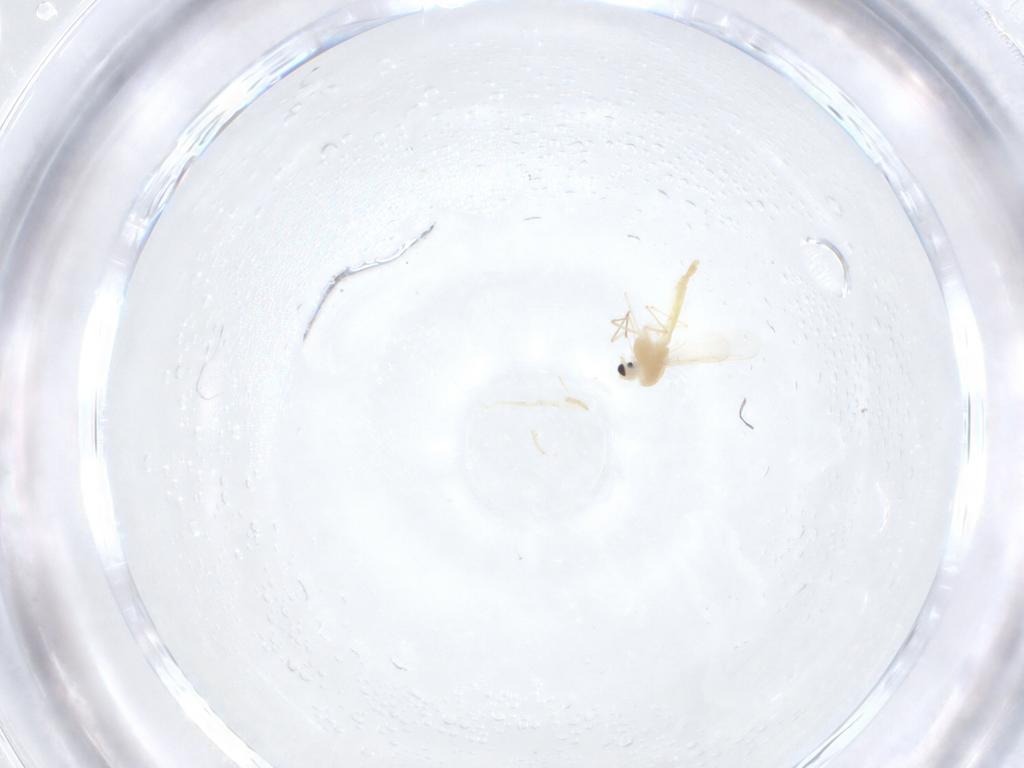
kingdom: Animalia
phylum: Arthropoda
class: Insecta
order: Diptera
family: Chironomidae
